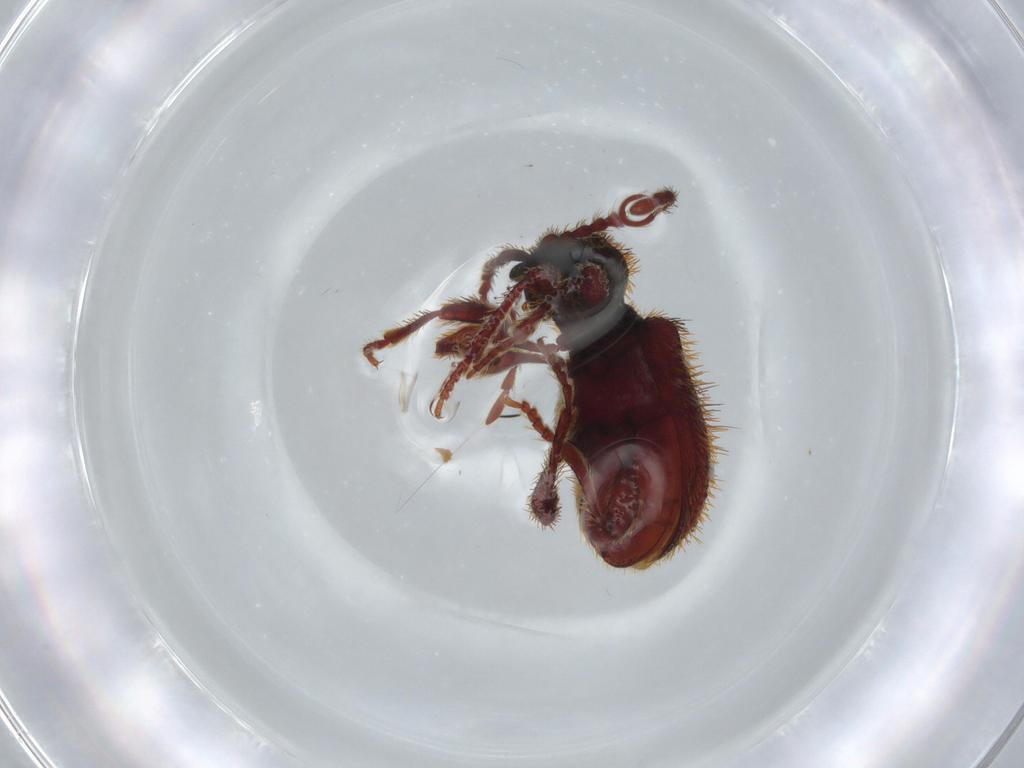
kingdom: Animalia
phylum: Arthropoda
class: Insecta
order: Coleoptera
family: Ptinidae
